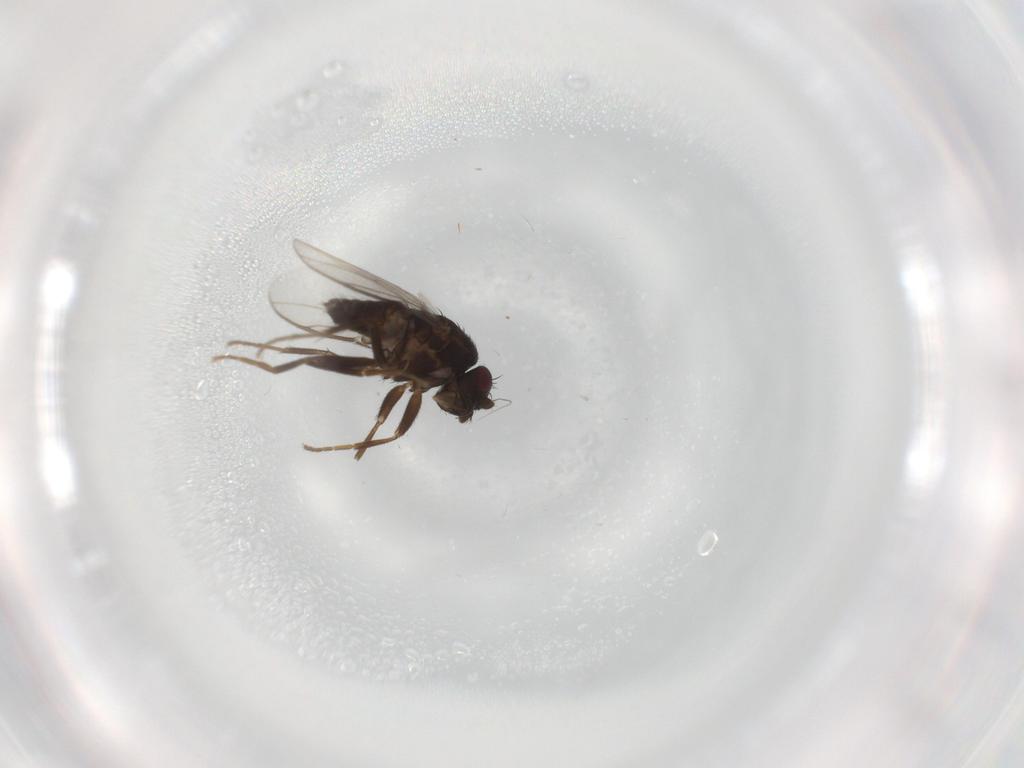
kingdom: Animalia
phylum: Arthropoda
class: Insecta
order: Diptera
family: Sphaeroceridae
